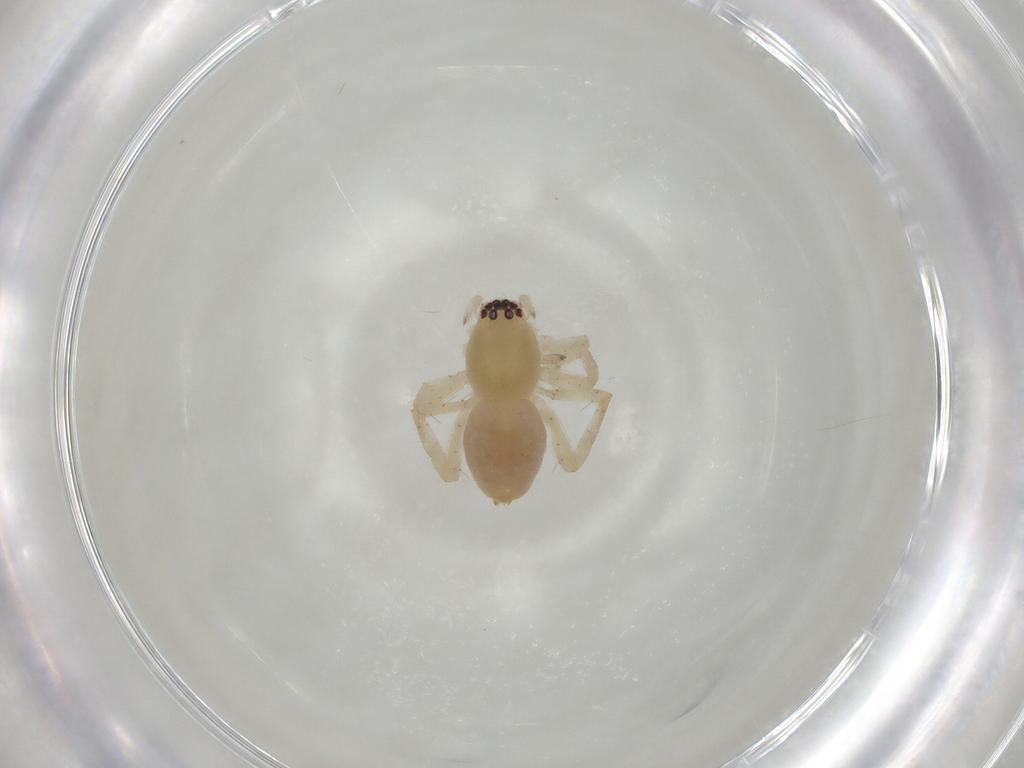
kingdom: Animalia
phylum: Arthropoda
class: Arachnida
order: Araneae
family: Clubionidae
